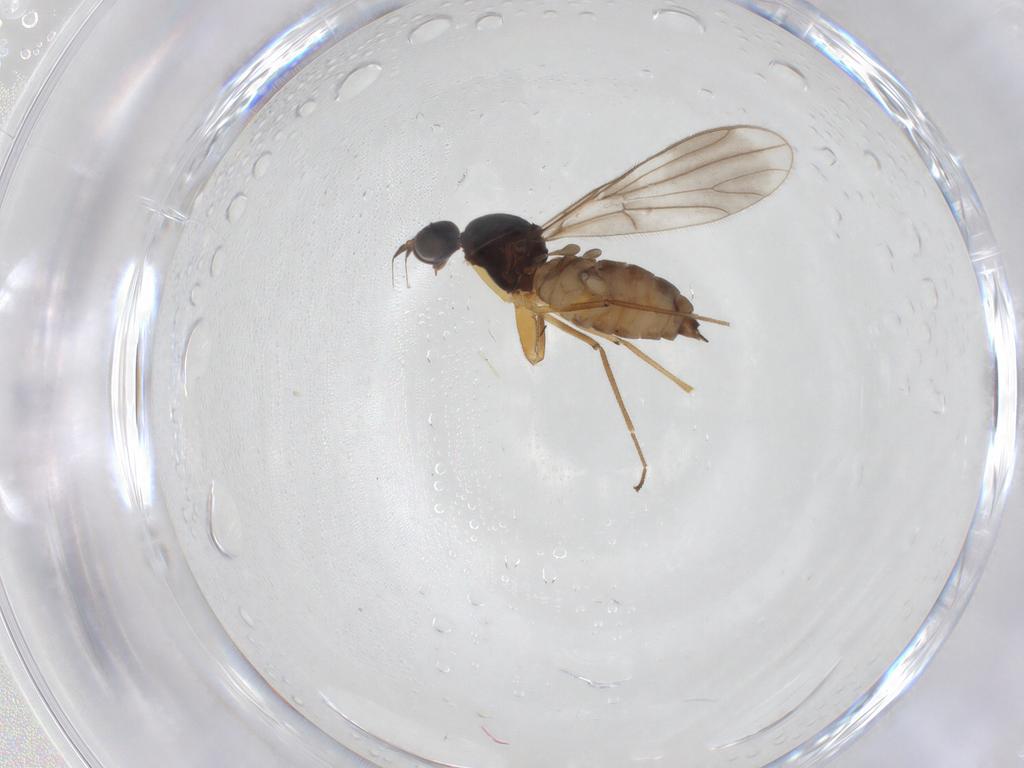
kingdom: Animalia
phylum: Arthropoda
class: Insecta
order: Diptera
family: Empididae
